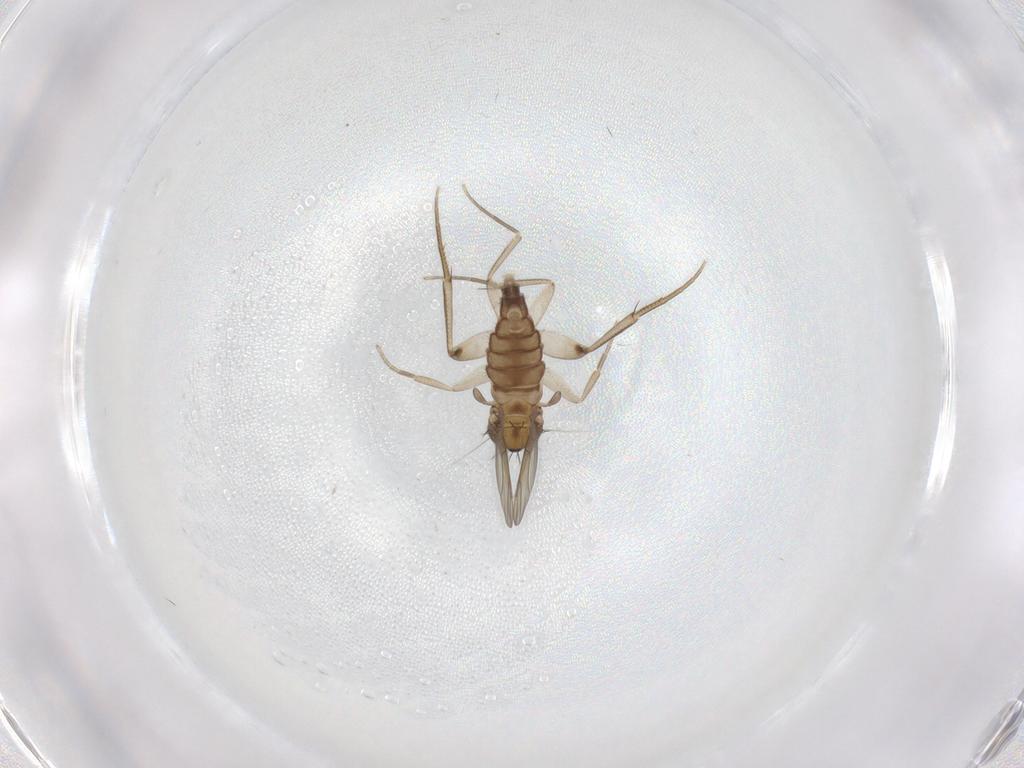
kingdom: Animalia
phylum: Arthropoda
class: Insecta
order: Diptera
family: Phoridae
